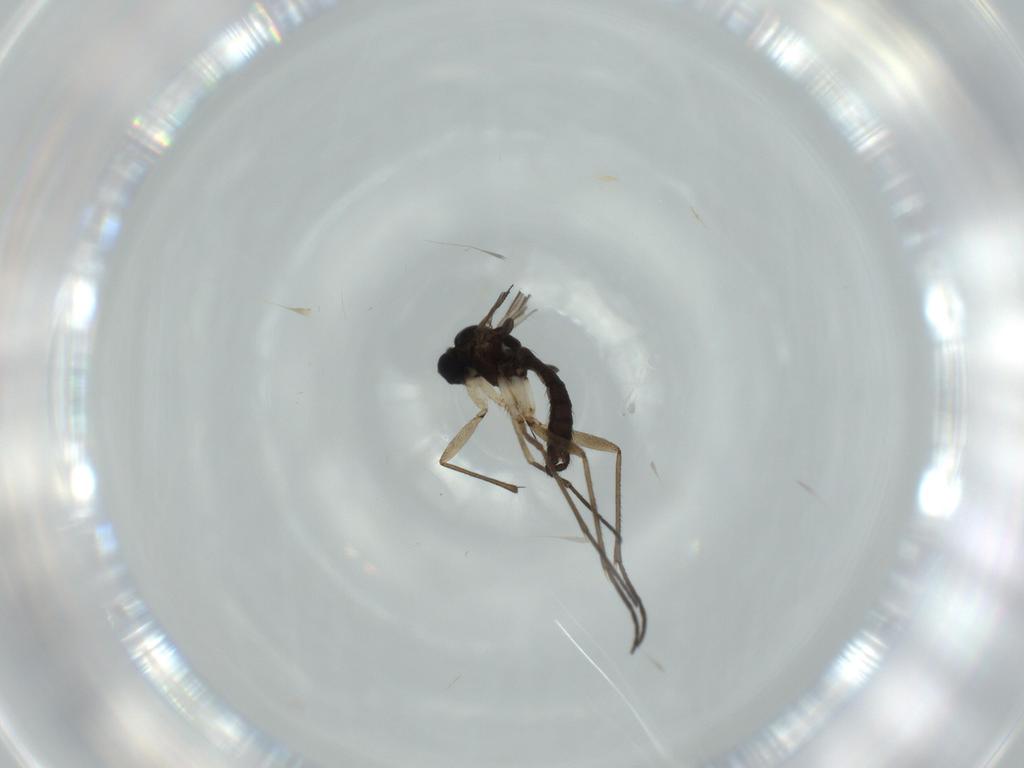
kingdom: Animalia
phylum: Arthropoda
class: Insecta
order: Diptera
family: Sciaridae
